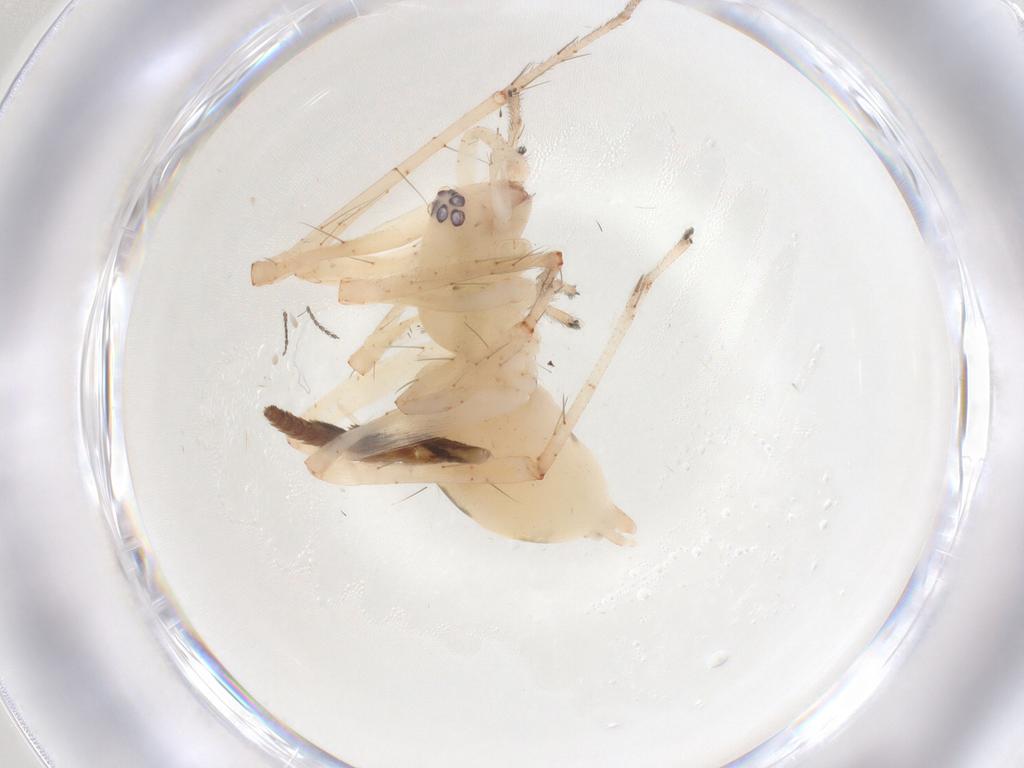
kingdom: Animalia
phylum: Arthropoda
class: Arachnida
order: Araneae
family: Anyphaenidae
